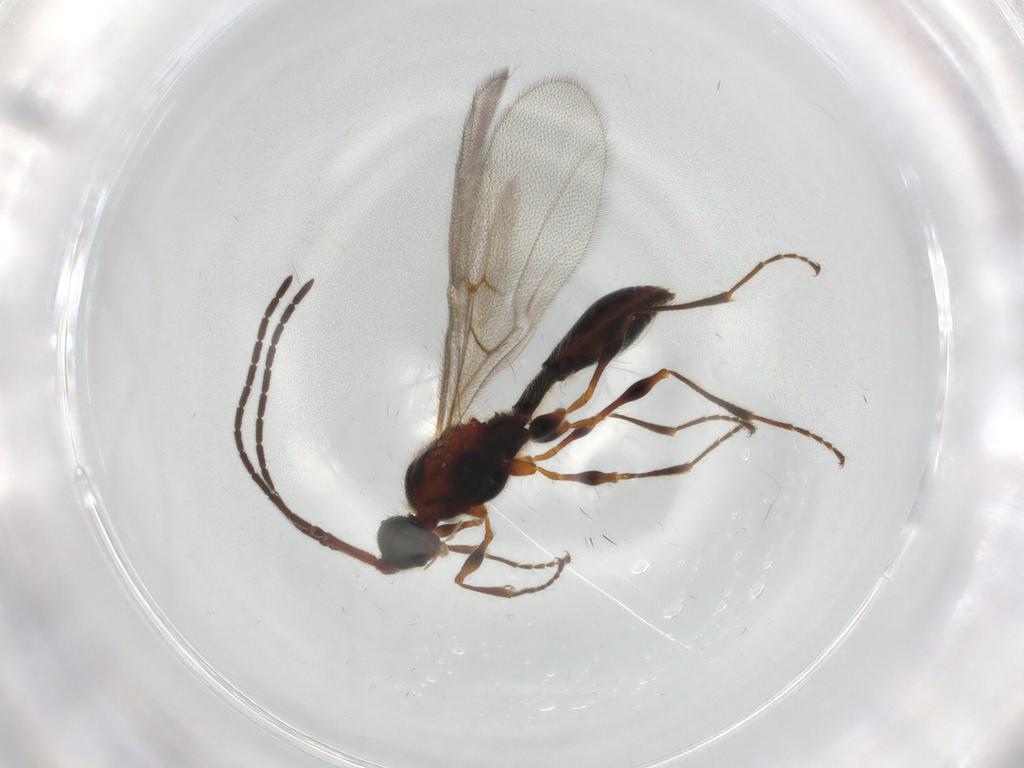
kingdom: Animalia
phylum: Arthropoda
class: Insecta
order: Hymenoptera
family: Diapriidae
